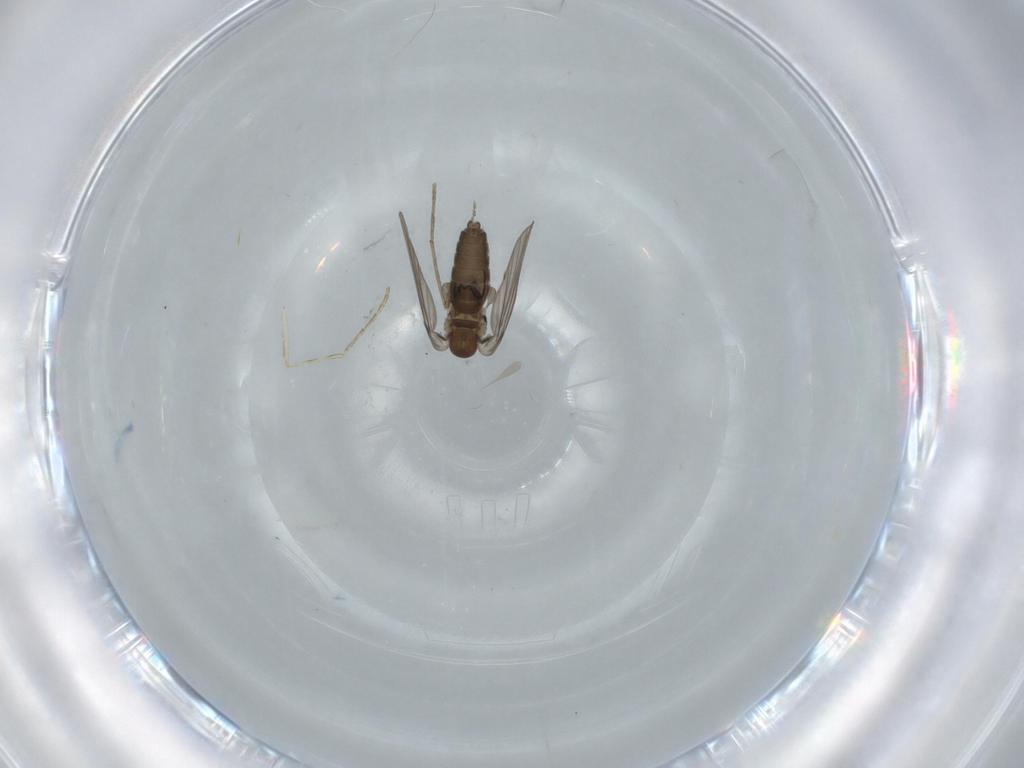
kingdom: Animalia
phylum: Arthropoda
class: Insecta
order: Diptera
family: Psychodidae
